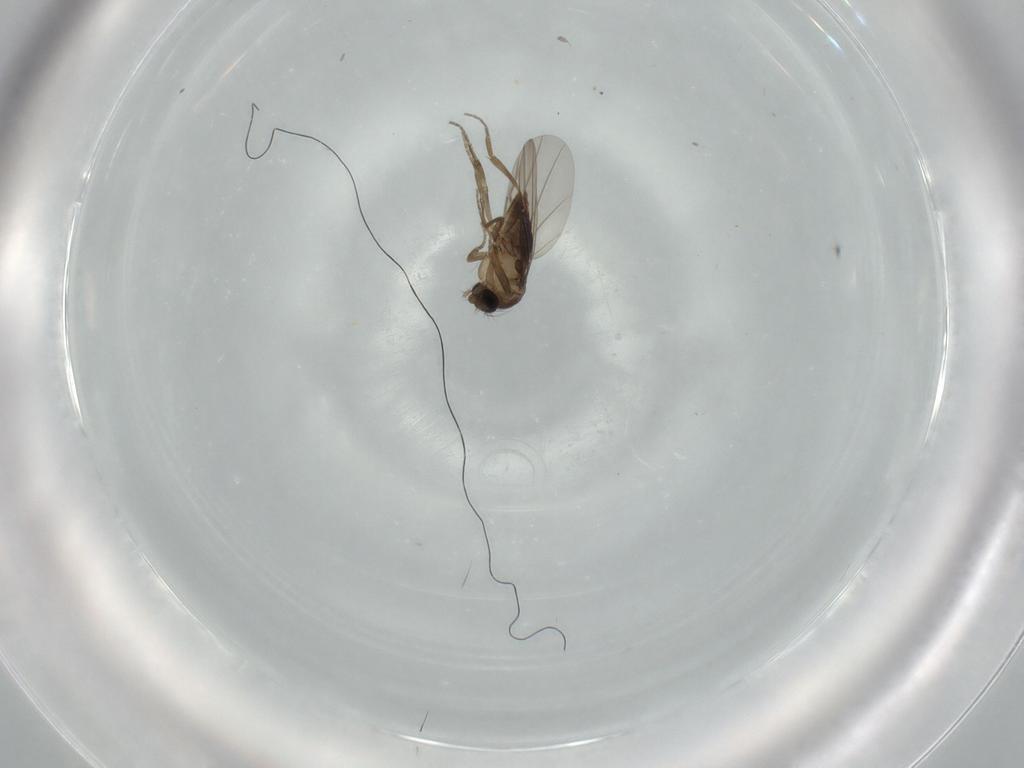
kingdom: Animalia
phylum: Arthropoda
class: Insecta
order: Diptera
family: Phoridae
